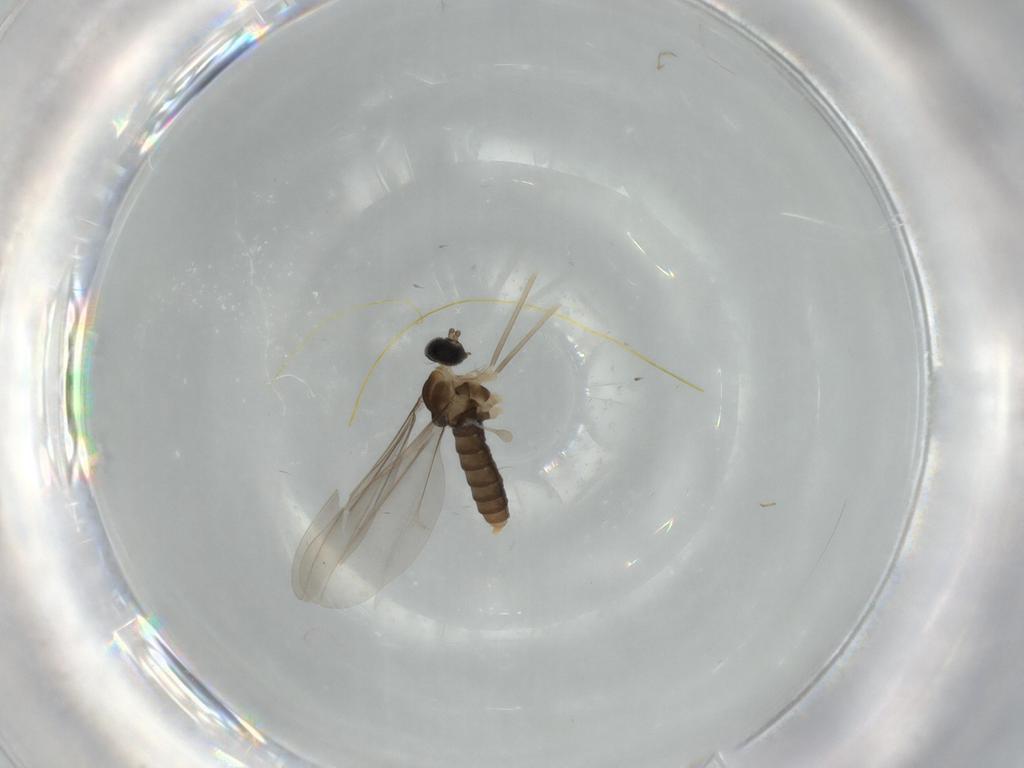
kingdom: Animalia
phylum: Arthropoda
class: Insecta
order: Diptera
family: Cecidomyiidae
